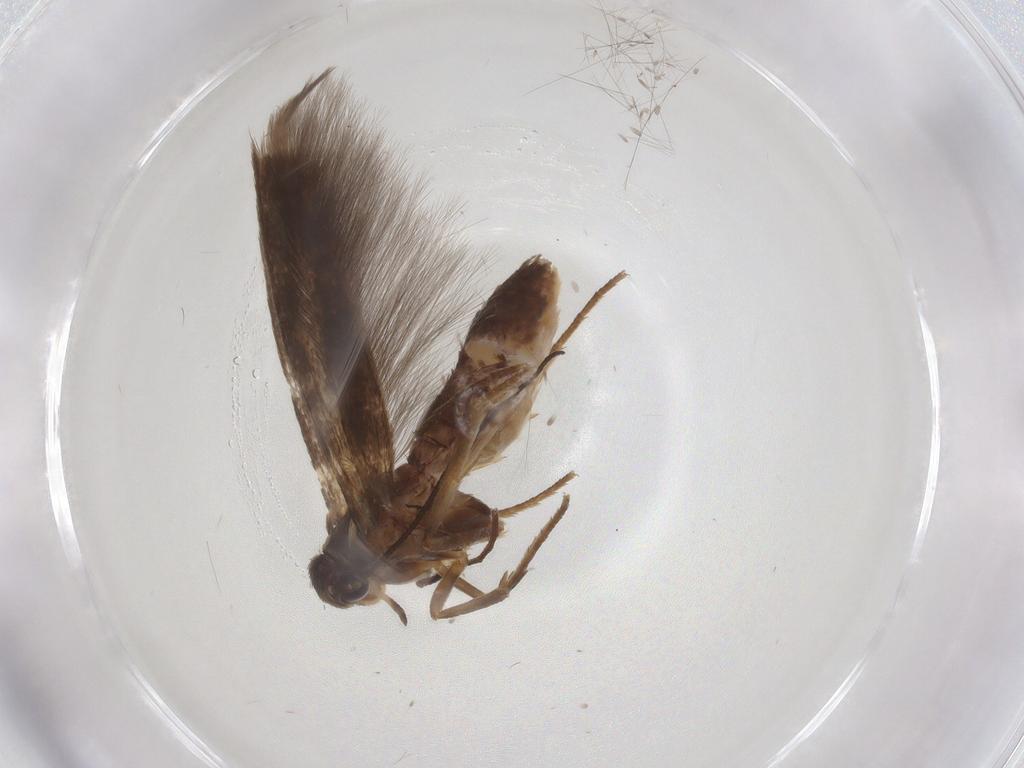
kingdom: Animalia
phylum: Arthropoda
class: Insecta
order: Lepidoptera
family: Scythrididae
